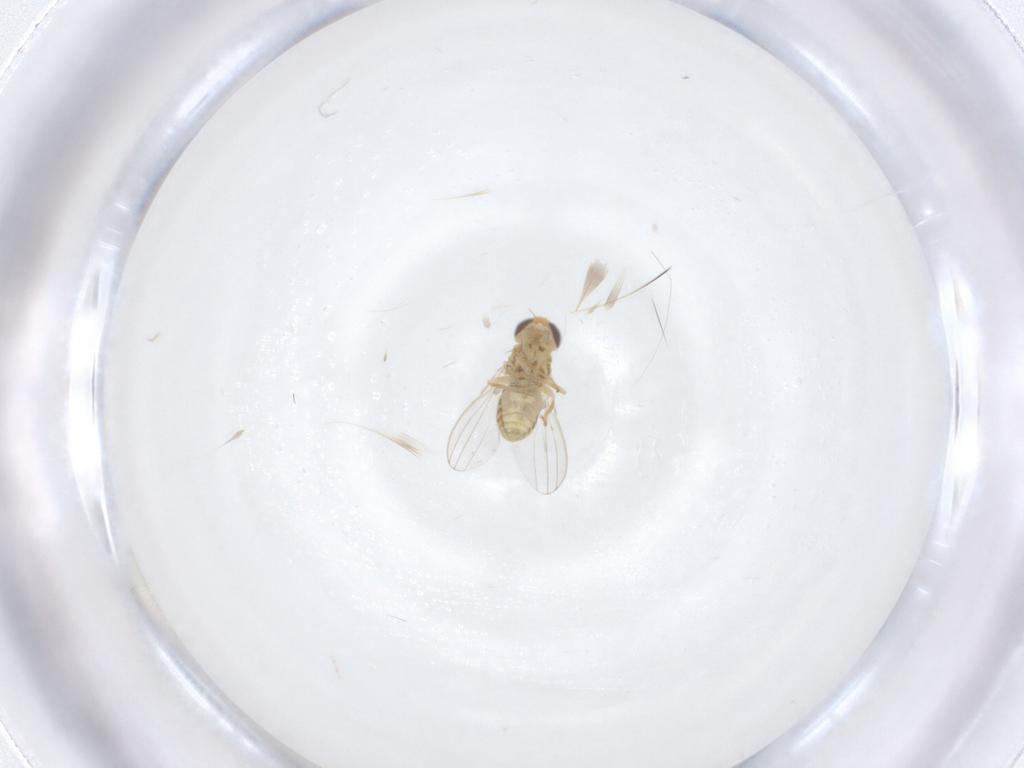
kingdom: Animalia
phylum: Arthropoda
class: Insecta
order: Diptera
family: Chyromyidae
